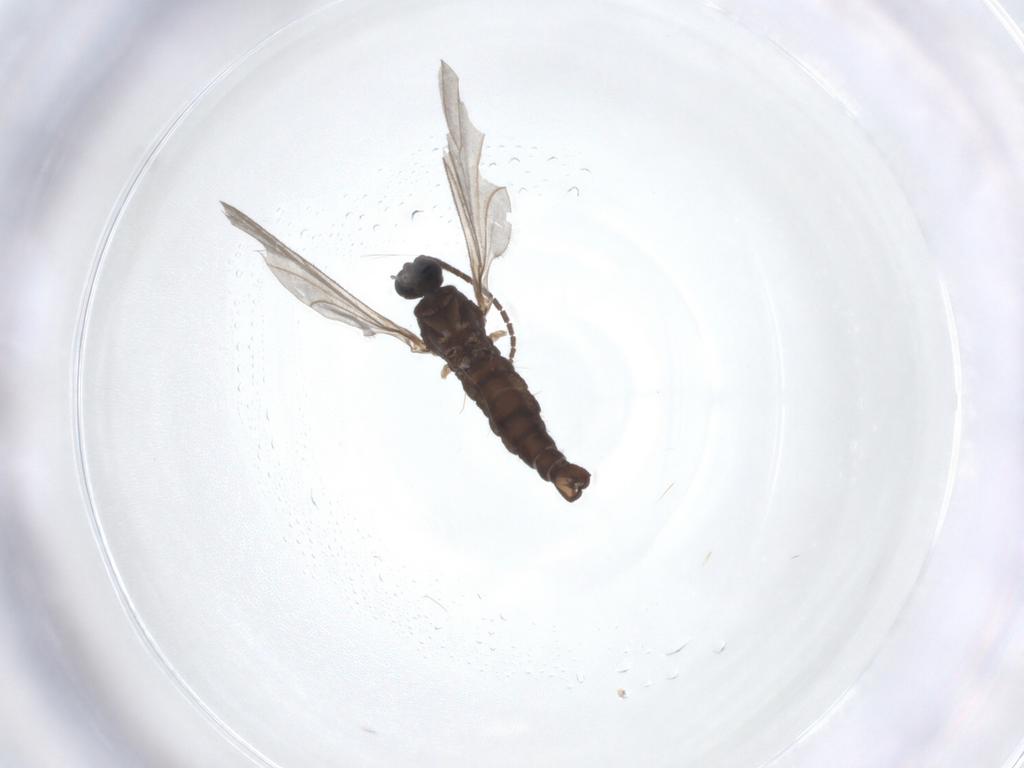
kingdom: Animalia
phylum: Arthropoda
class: Insecta
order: Diptera
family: Sciaridae
